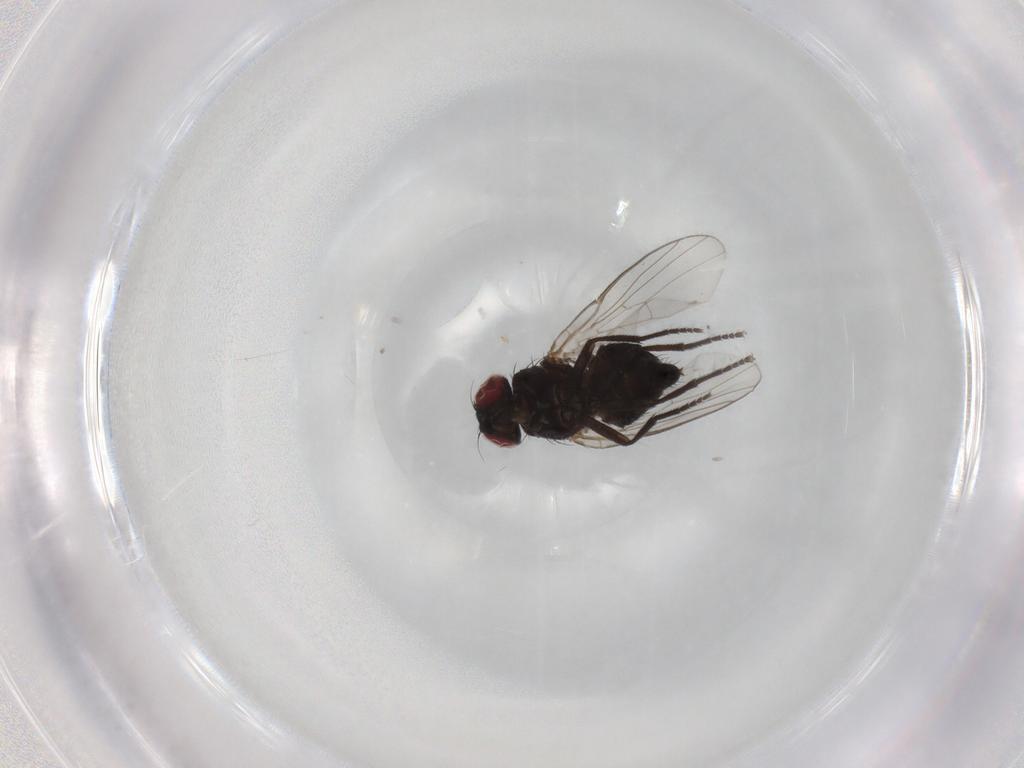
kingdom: Animalia
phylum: Arthropoda
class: Insecta
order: Diptera
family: Agromyzidae
